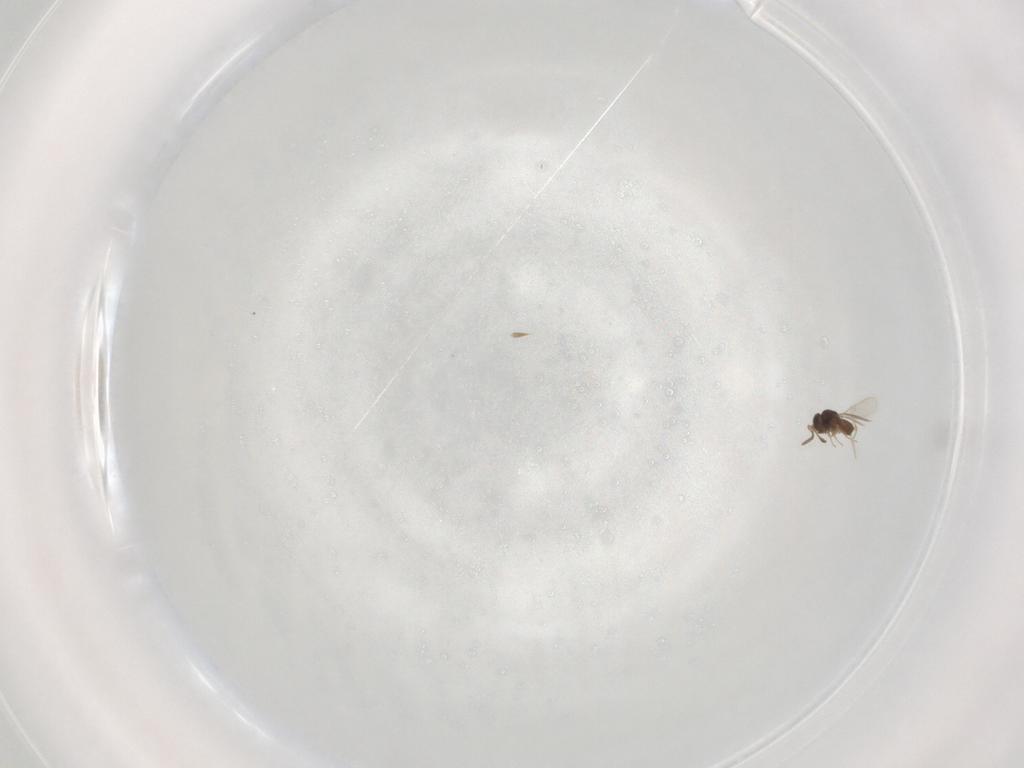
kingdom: Animalia
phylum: Arthropoda
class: Insecta
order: Hymenoptera
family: Scelionidae
